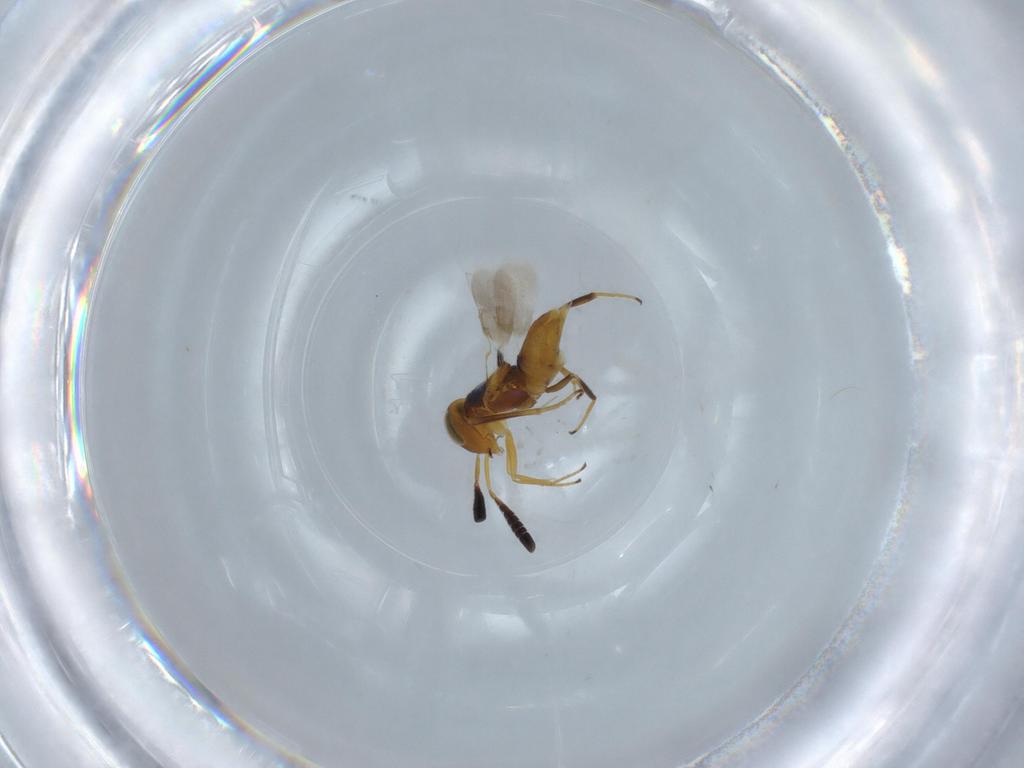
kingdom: Animalia
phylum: Arthropoda
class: Insecta
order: Hymenoptera
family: Encyrtidae
